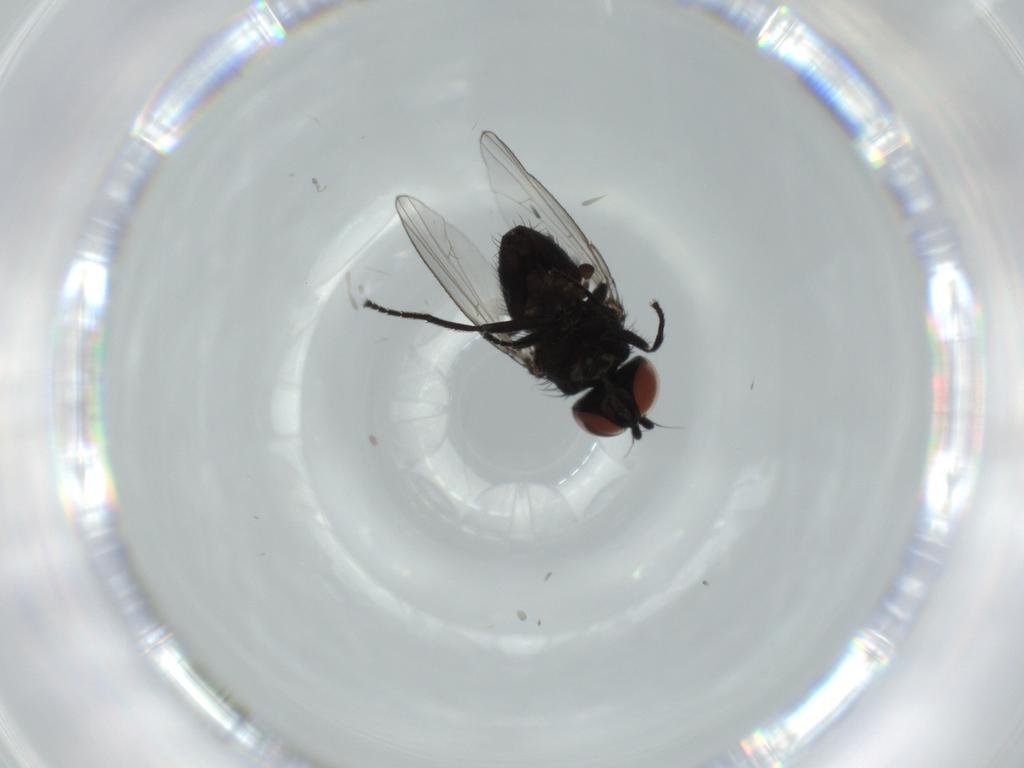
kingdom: Animalia
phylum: Arthropoda
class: Insecta
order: Diptera
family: Milichiidae
